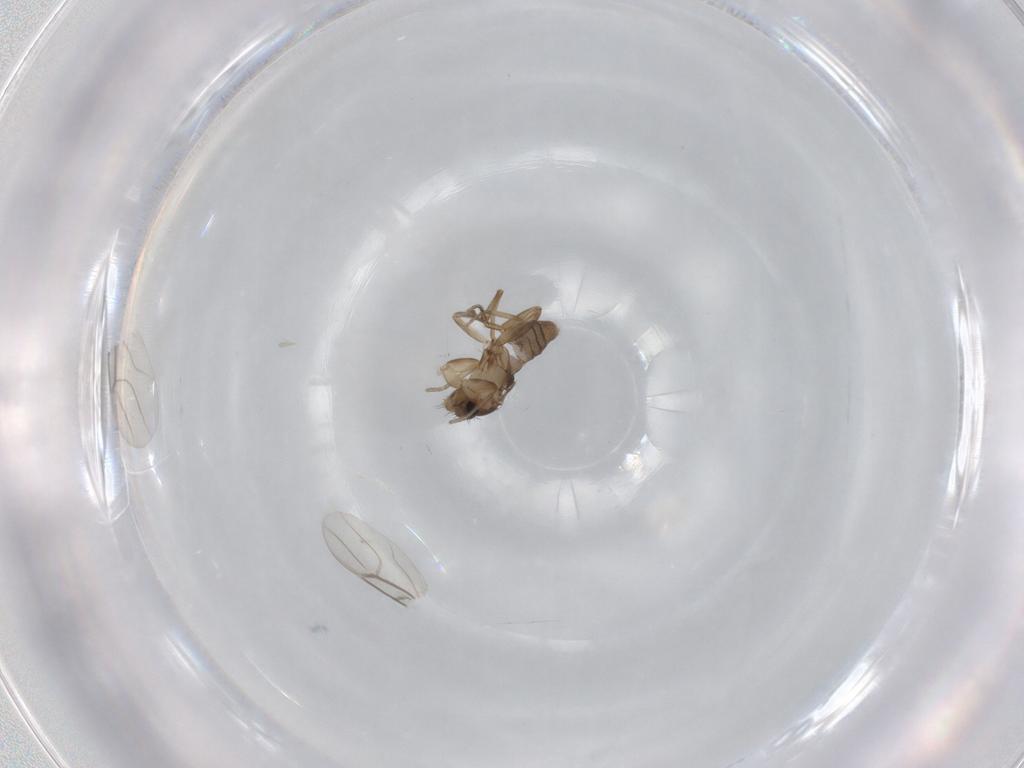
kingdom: Animalia
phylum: Arthropoda
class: Insecta
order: Diptera
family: Phoridae
